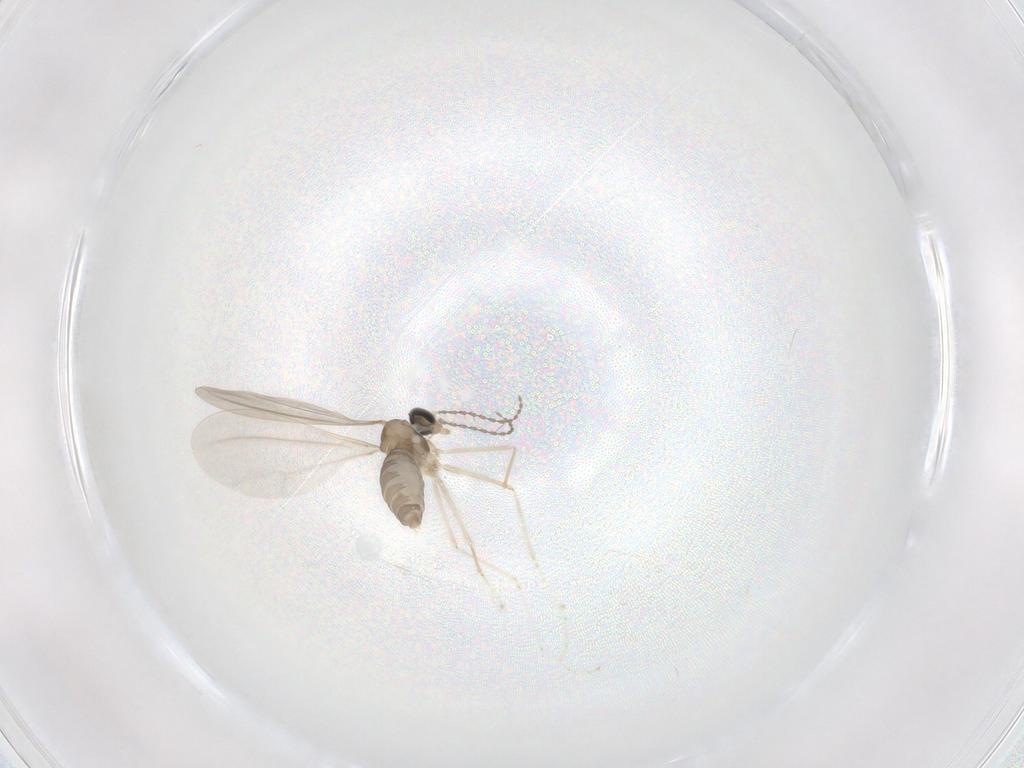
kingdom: Animalia
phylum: Arthropoda
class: Insecta
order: Diptera
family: Cecidomyiidae
